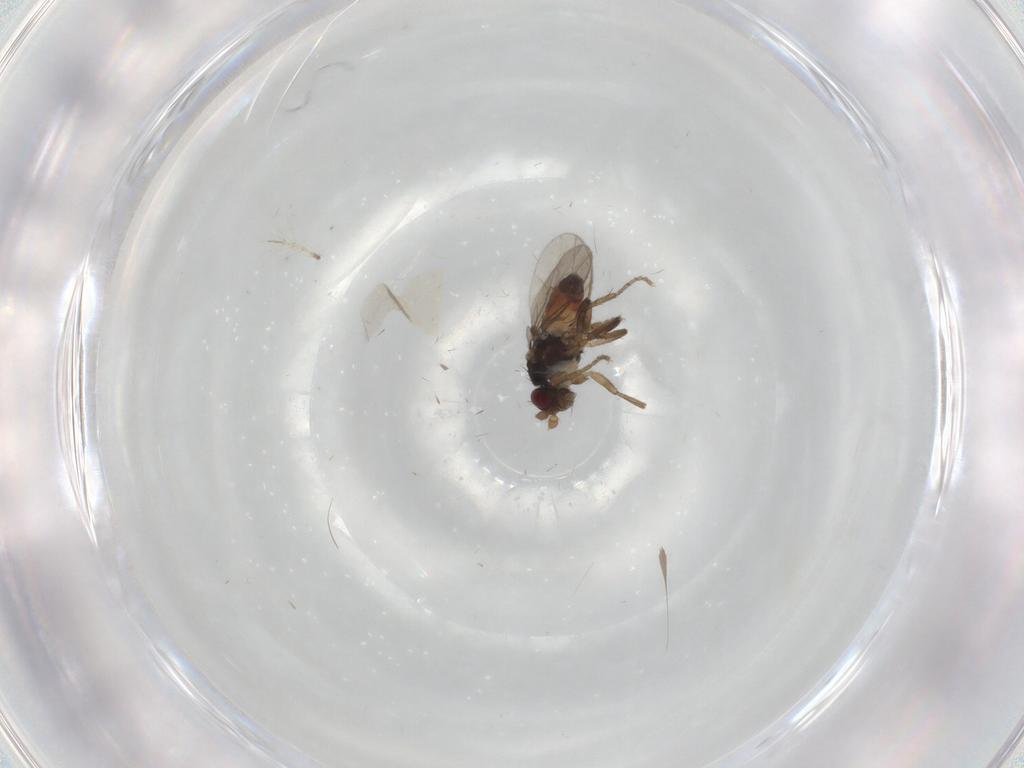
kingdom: Animalia
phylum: Arthropoda
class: Insecta
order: Diptera
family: Sphaeroceridae
